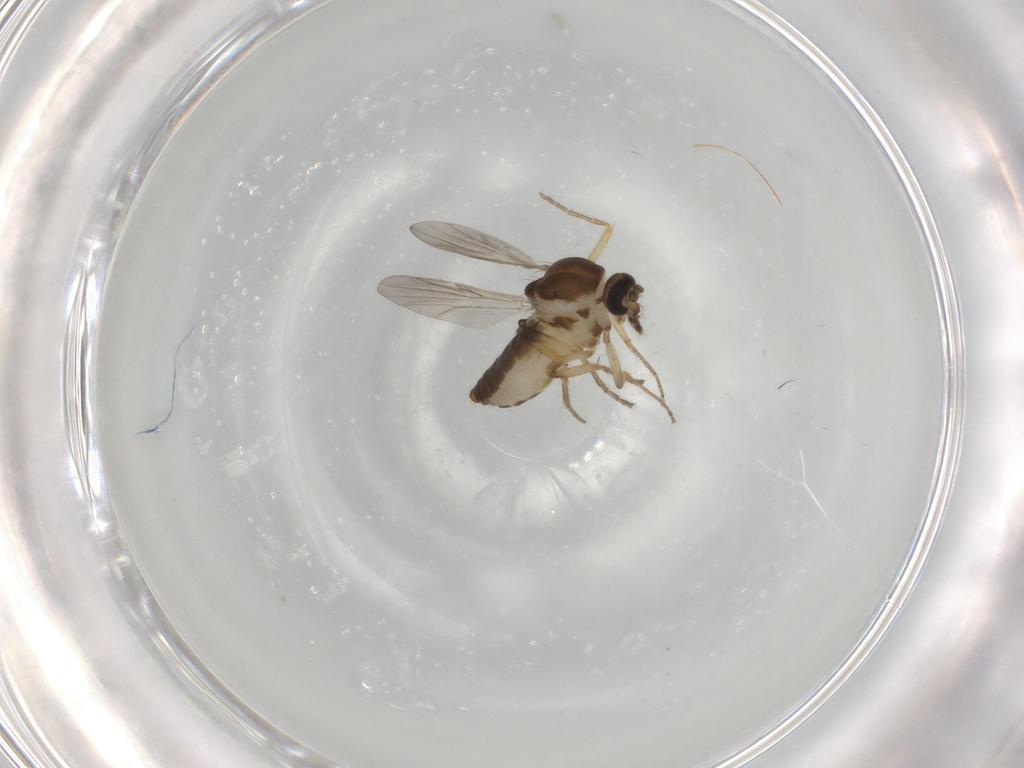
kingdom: Animalia
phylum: Arthropoda
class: Insecta
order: Diptera
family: Ceratopogonidae
